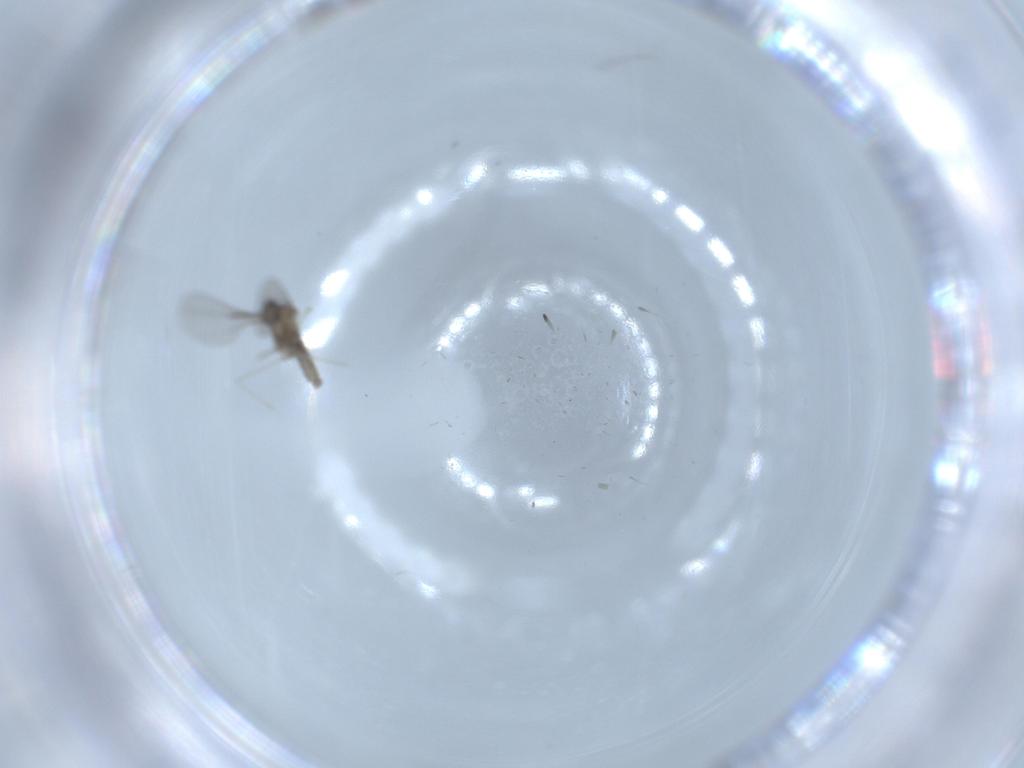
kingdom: Animalia
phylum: Arthropoda
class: Insecta
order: Diptera
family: Cecidomyiidae
